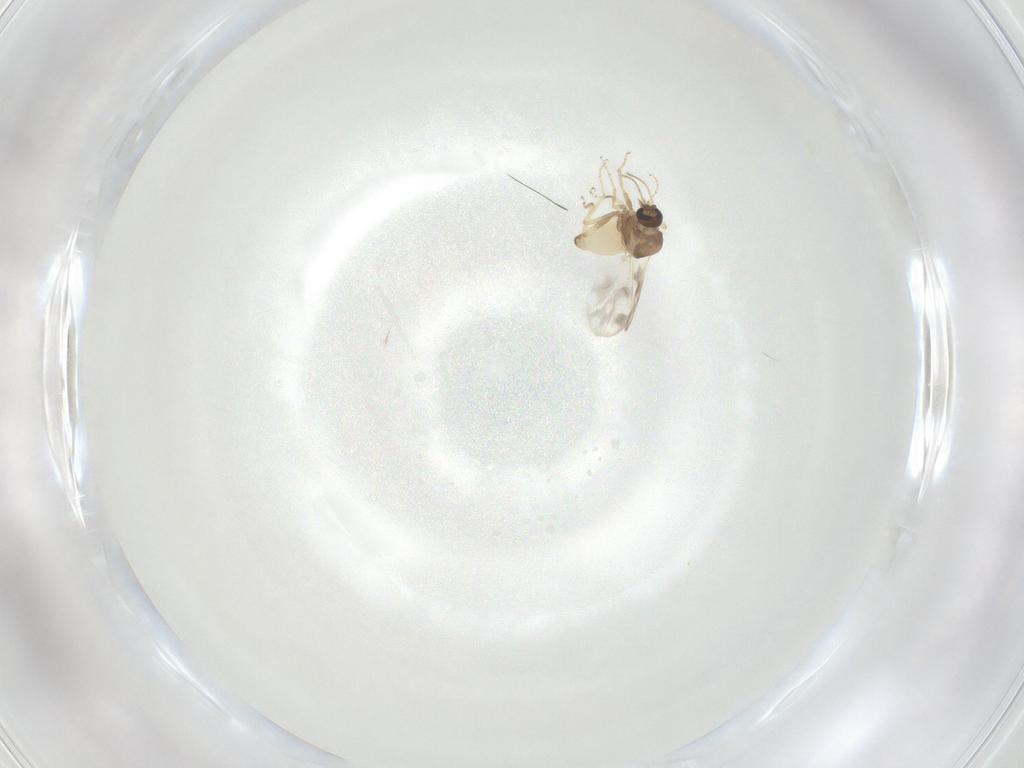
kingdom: Animalia
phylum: Arthropoda
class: Insecta
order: Diptera
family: Ceratopogonidae
